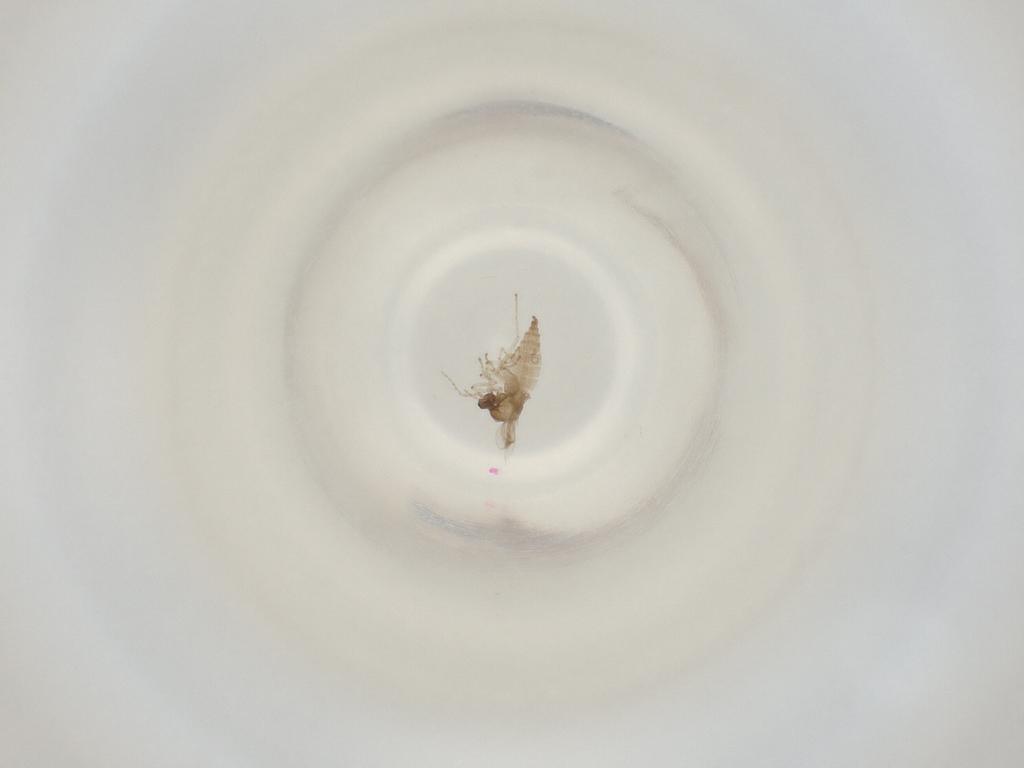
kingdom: Animalia
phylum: Arthropoda
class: Insecta
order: Diptera
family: Cecidomyiidae
